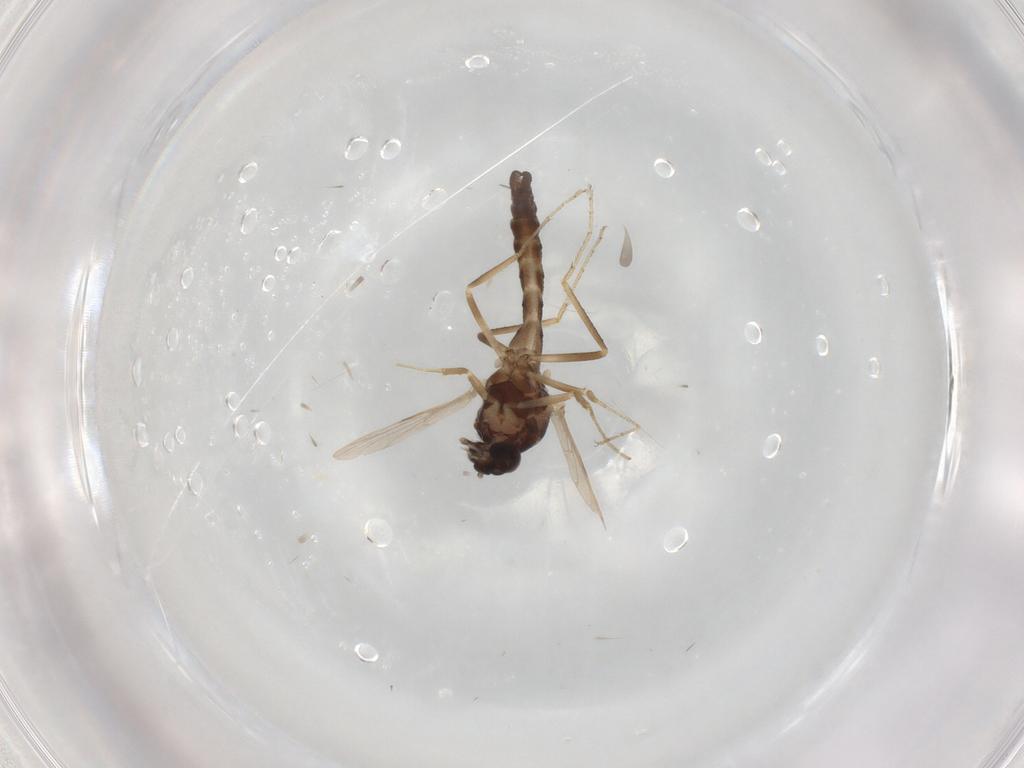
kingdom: Animalia
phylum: Arthropoda
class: Insecta
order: Diptera
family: Ceratopogonidae
